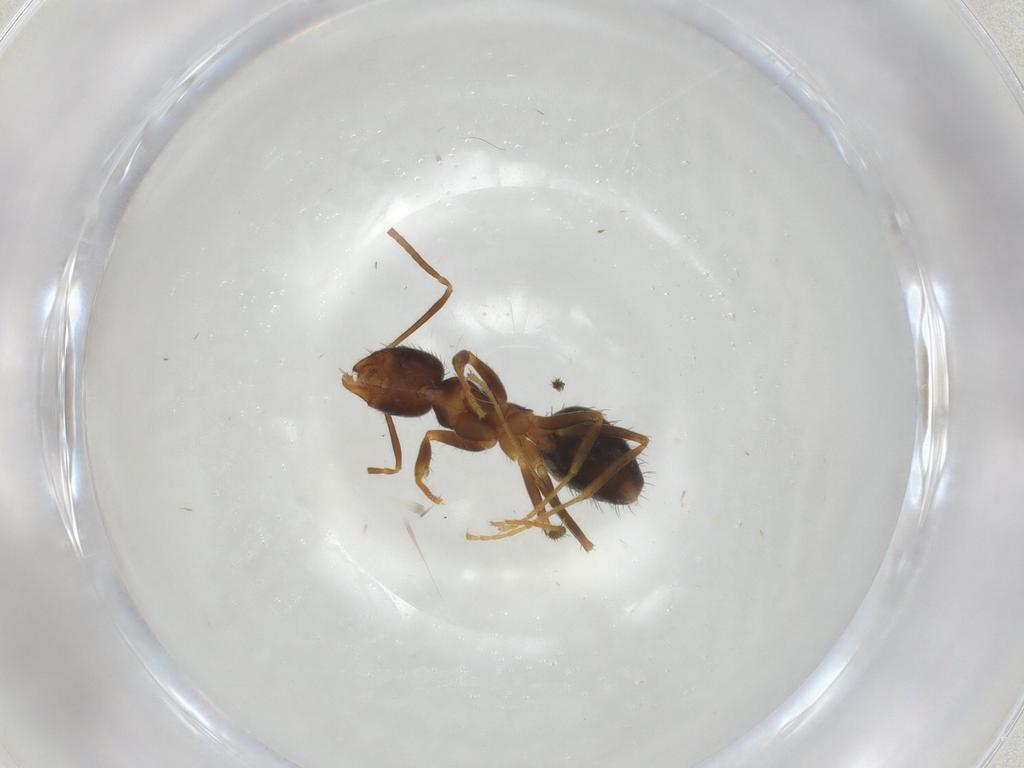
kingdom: Animalia
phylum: Arthropoda
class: Insecta
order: Hymenoptera
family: Formicidae
